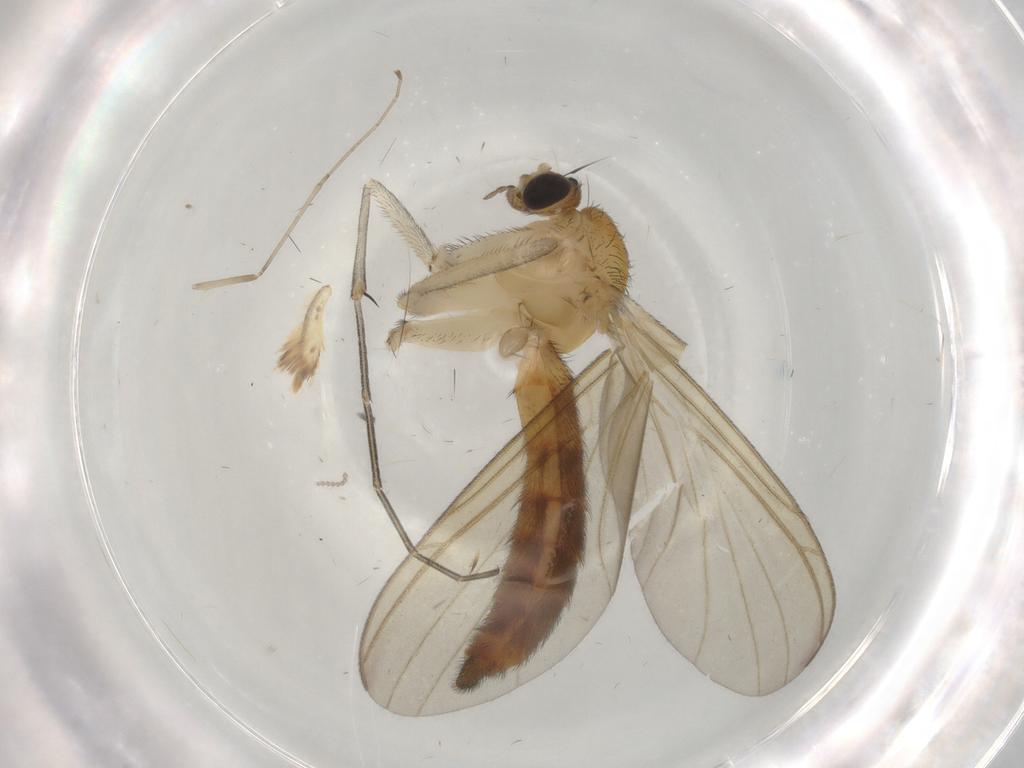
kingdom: Animalia
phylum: Arthropoda
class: Insecta
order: Diptera
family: Keroplatidae
